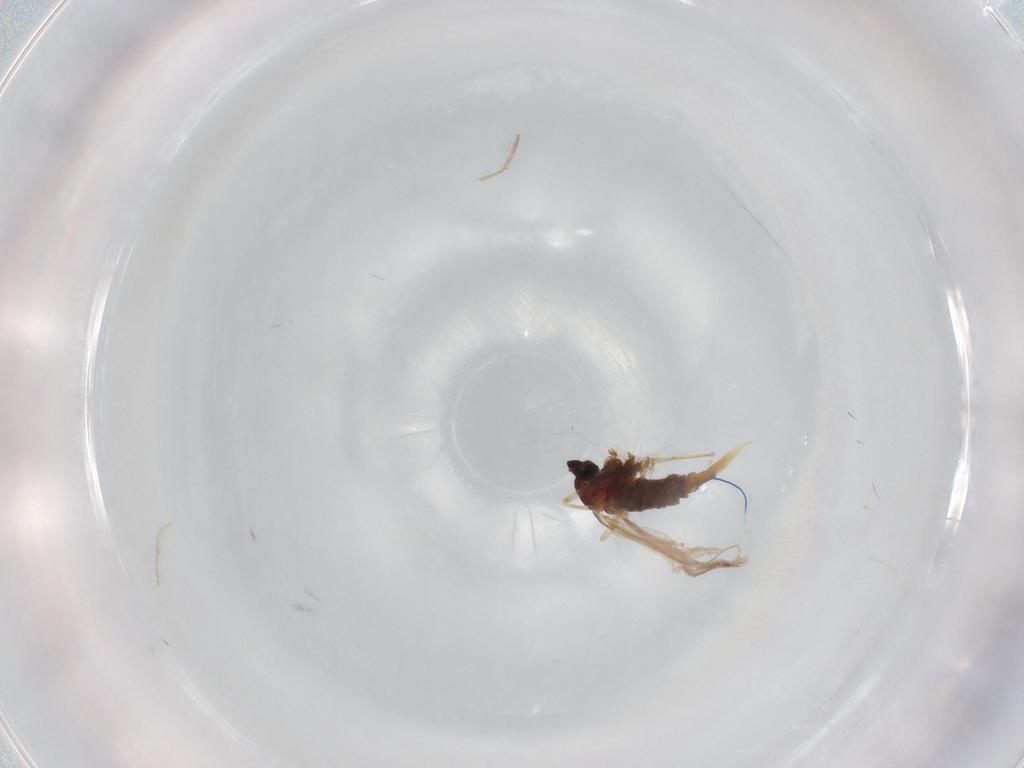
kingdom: Animalia
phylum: Arthropoda
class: Insecta
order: Diptera
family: Cecidomyiidae
